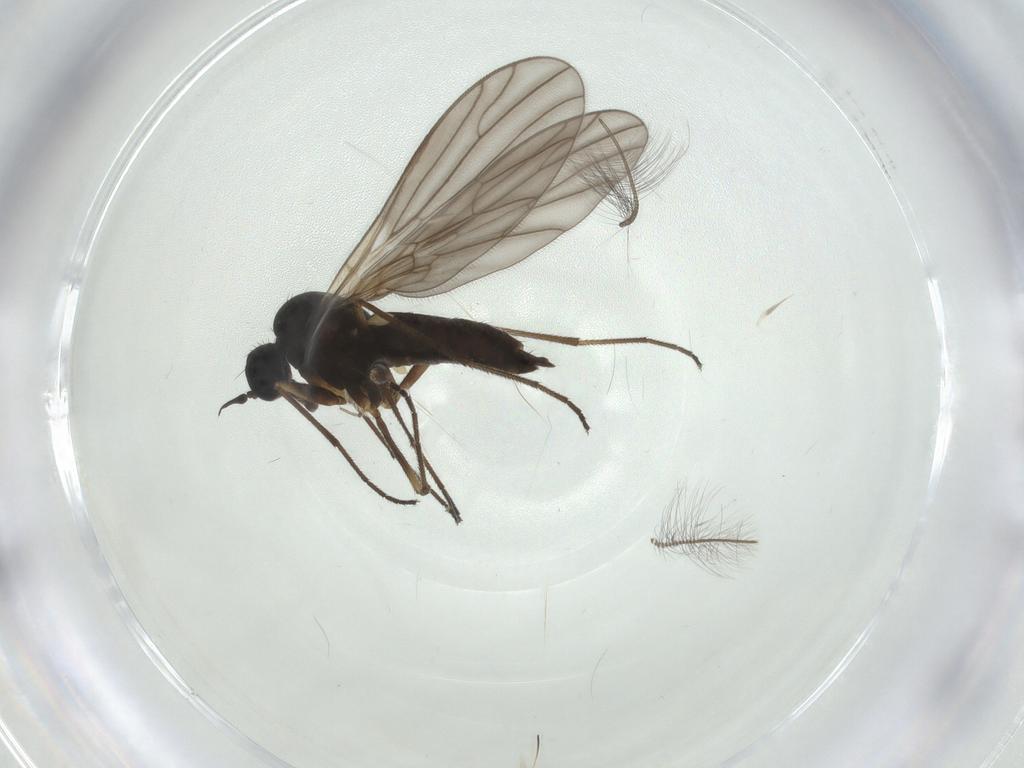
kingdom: Animalia
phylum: Arthropoda
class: Insecta
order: Diptera
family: Chironomidae
